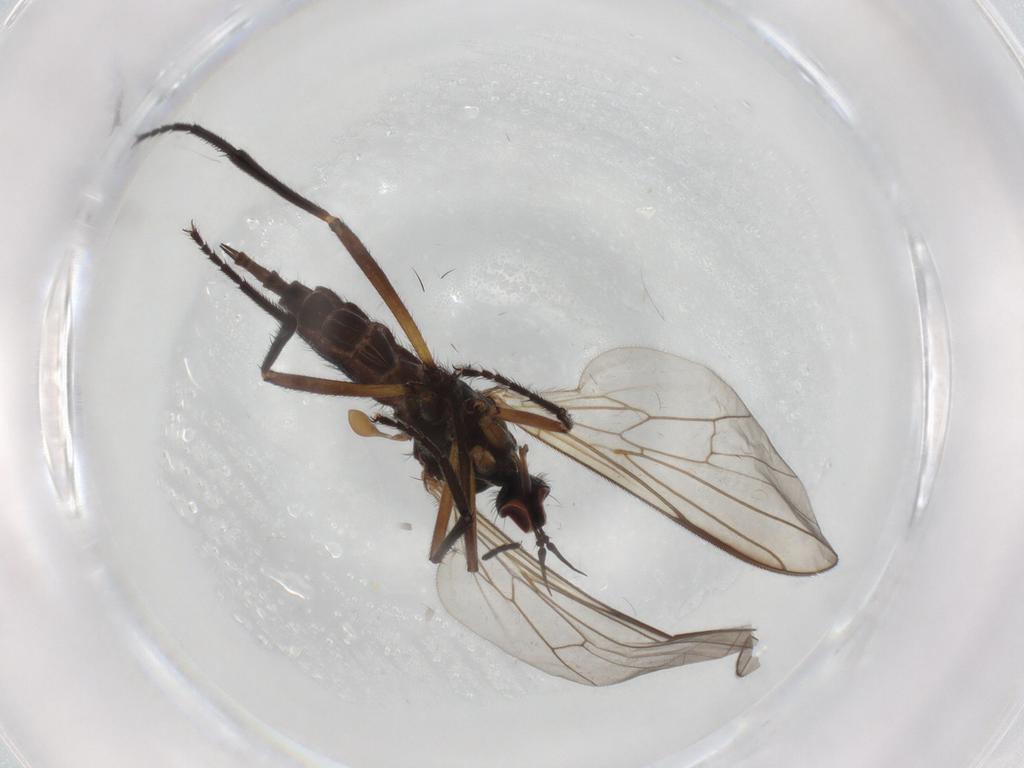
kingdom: Animalia
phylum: Arthropoda
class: Insecta
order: Diptera
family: Empididae
